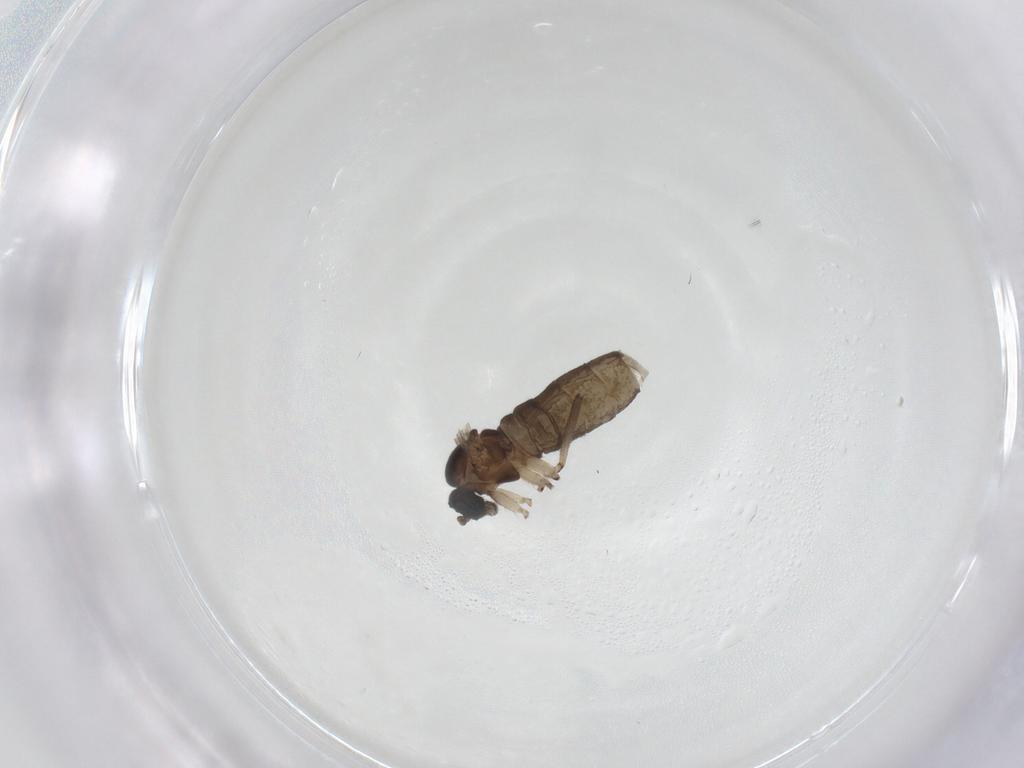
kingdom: Animalia
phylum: Arthropoda
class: Insecta
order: Diptera
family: Sciaridae
